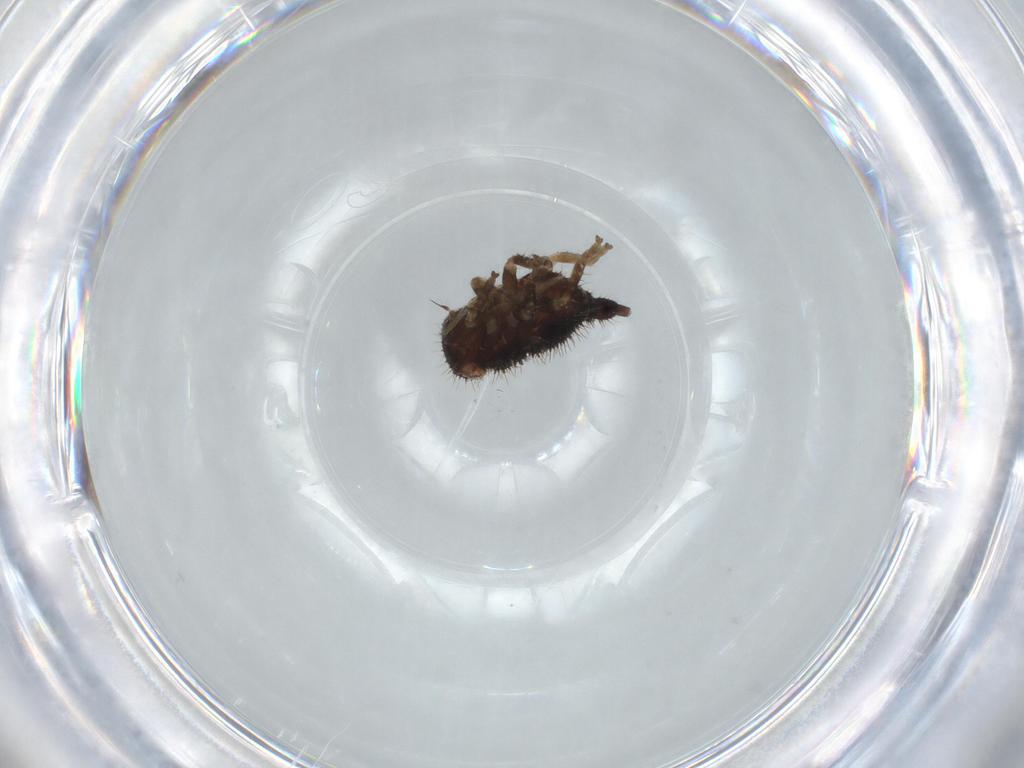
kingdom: Animalia
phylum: Arthropoda
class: Insecta
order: Hemiptera
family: Membracidae
